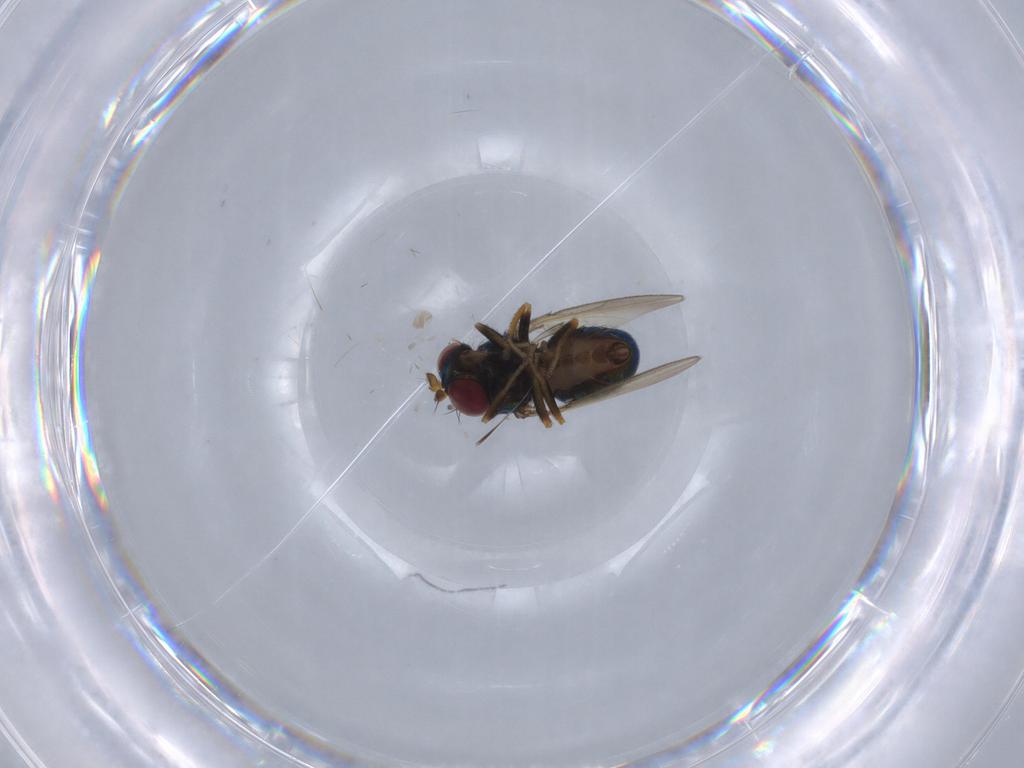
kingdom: Animalia
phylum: Arthropoda
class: Insecta
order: Diptera
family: Ephydridae
